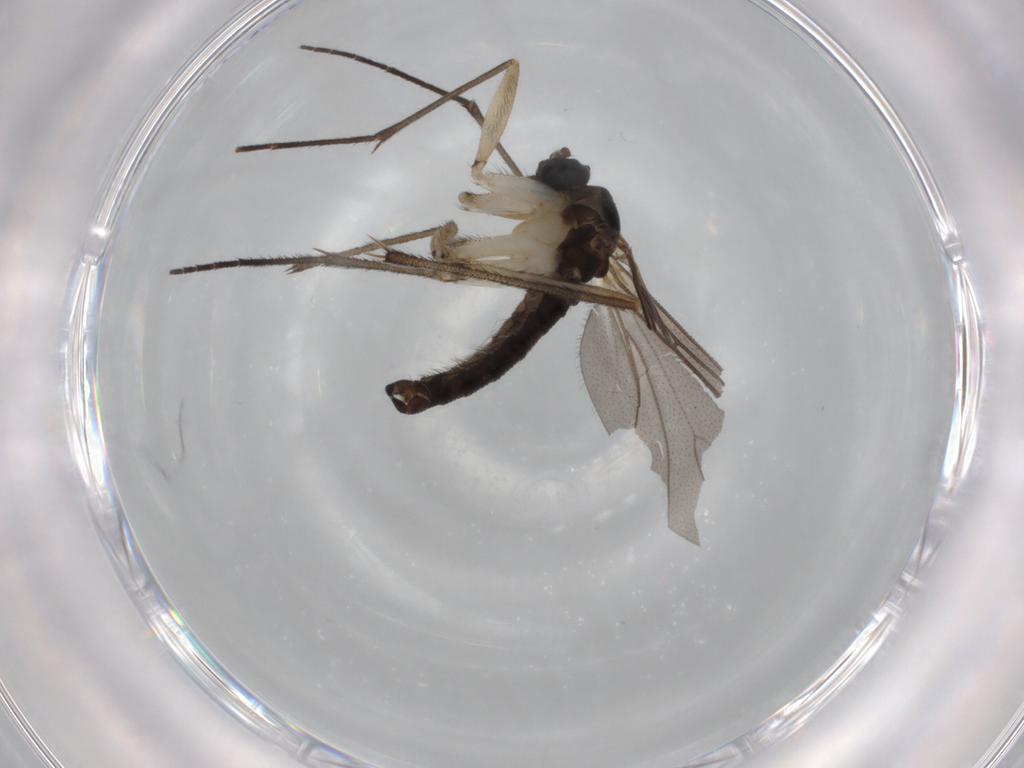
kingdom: Animalia
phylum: Arthropoda
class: Insecta
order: Diptera
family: Sciaridae
